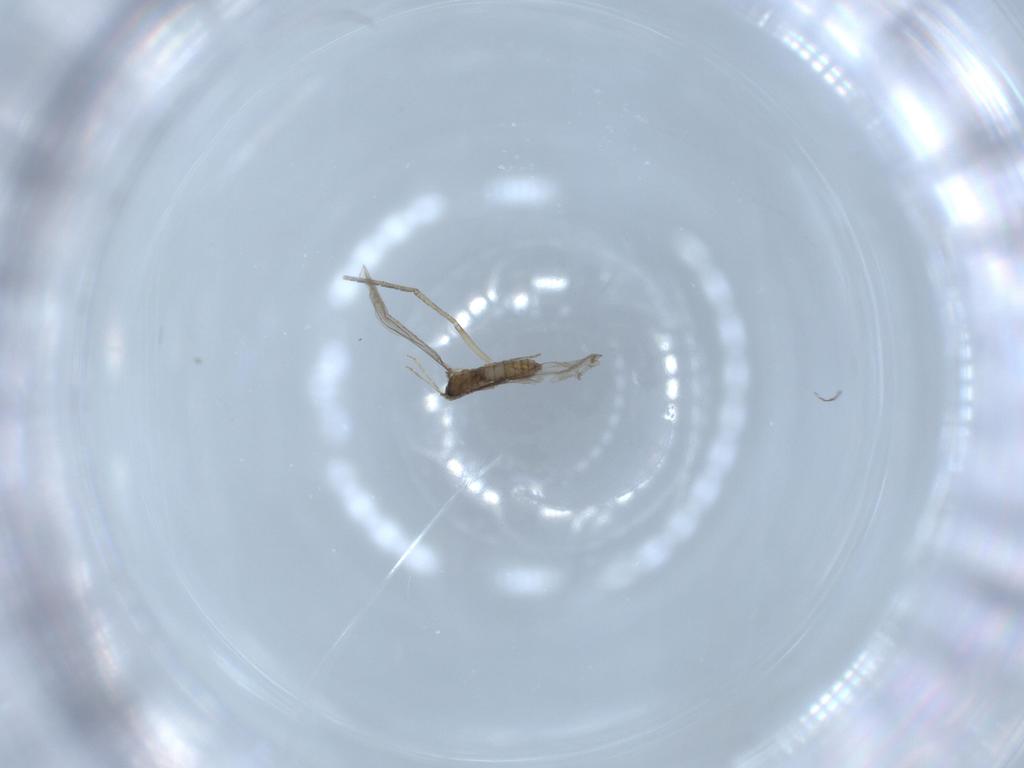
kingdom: Animalia
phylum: Arthropoda
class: Insecta
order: Diptera
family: Cecidomyiidae
